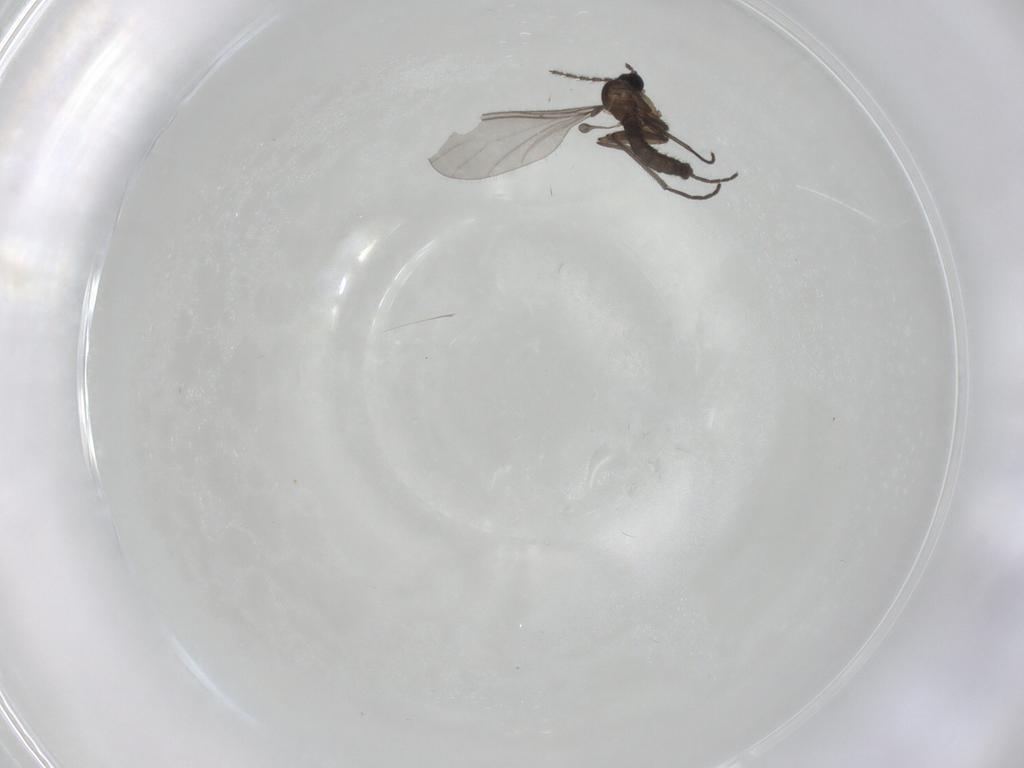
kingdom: Animalia
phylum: Arthropoda
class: Insecta
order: Diptera
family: Sciaridae
